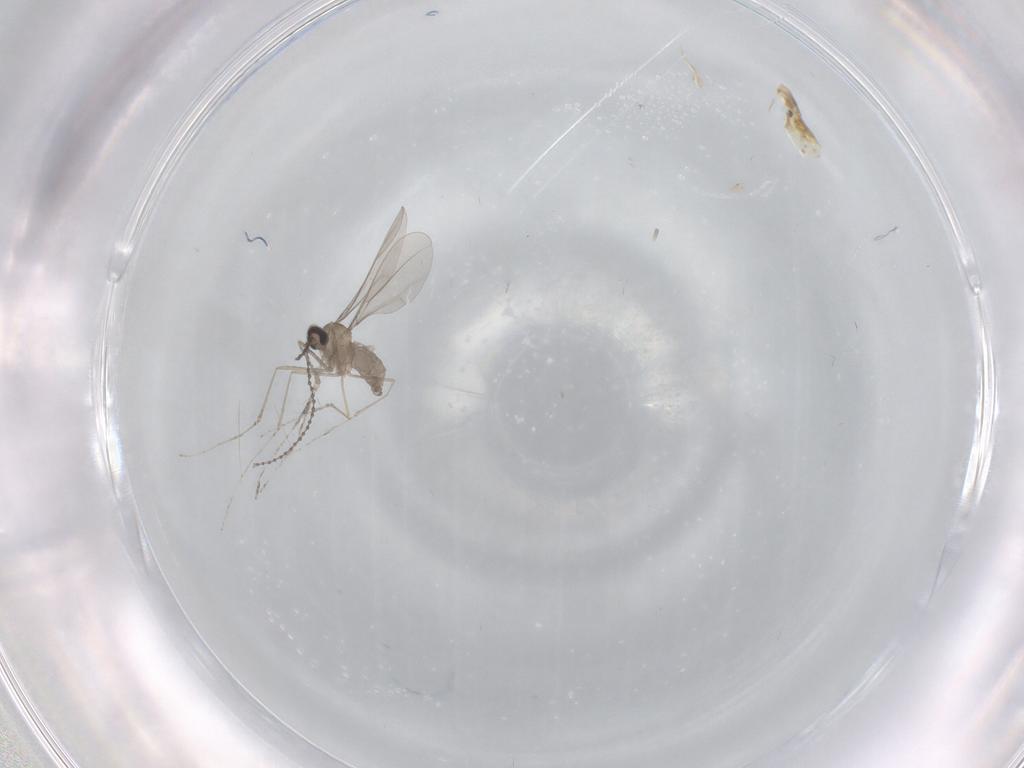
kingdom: Animalia
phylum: Arthropoda
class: Insecta
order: Diptera
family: Cecidomyiidae
